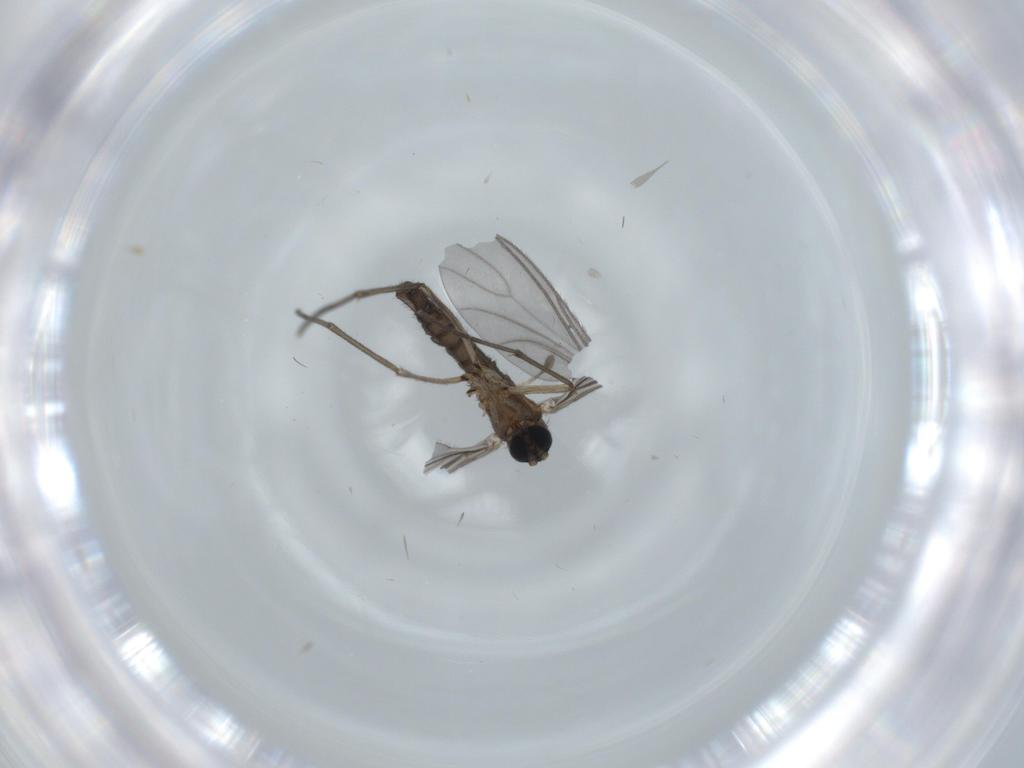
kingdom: Animalia
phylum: Arthropoda
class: Insecta
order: Diptera
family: Sciaridae
